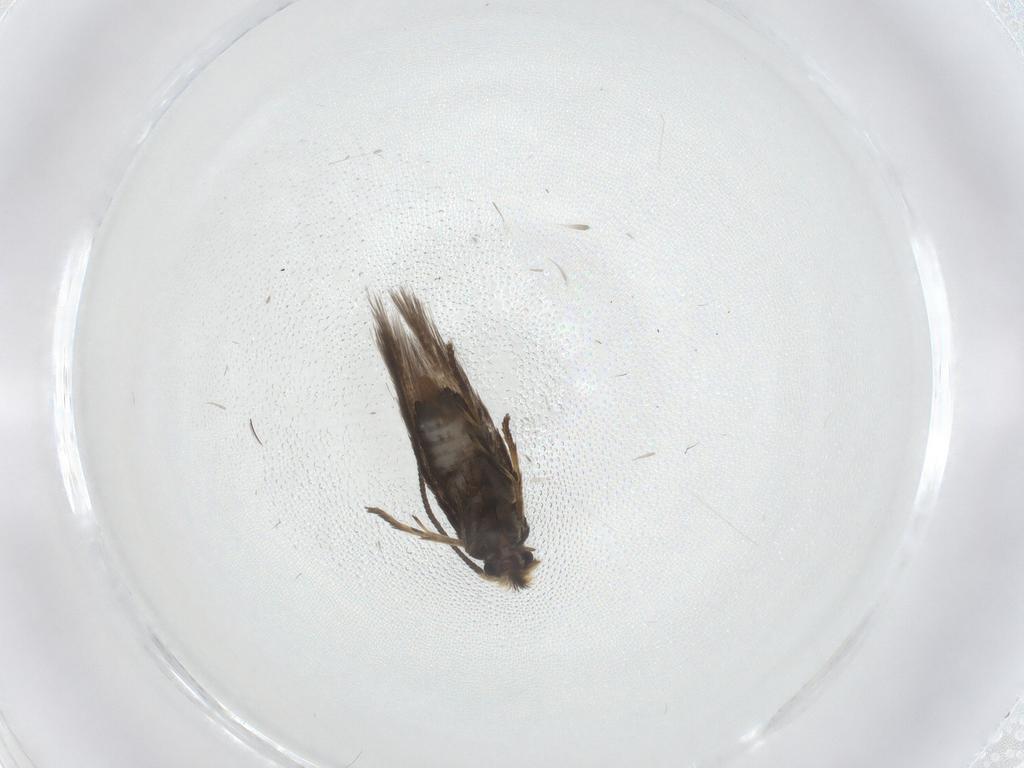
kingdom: Animalia
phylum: Arthropoda
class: Insecta
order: Lepidoptera
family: Nepticulidae
